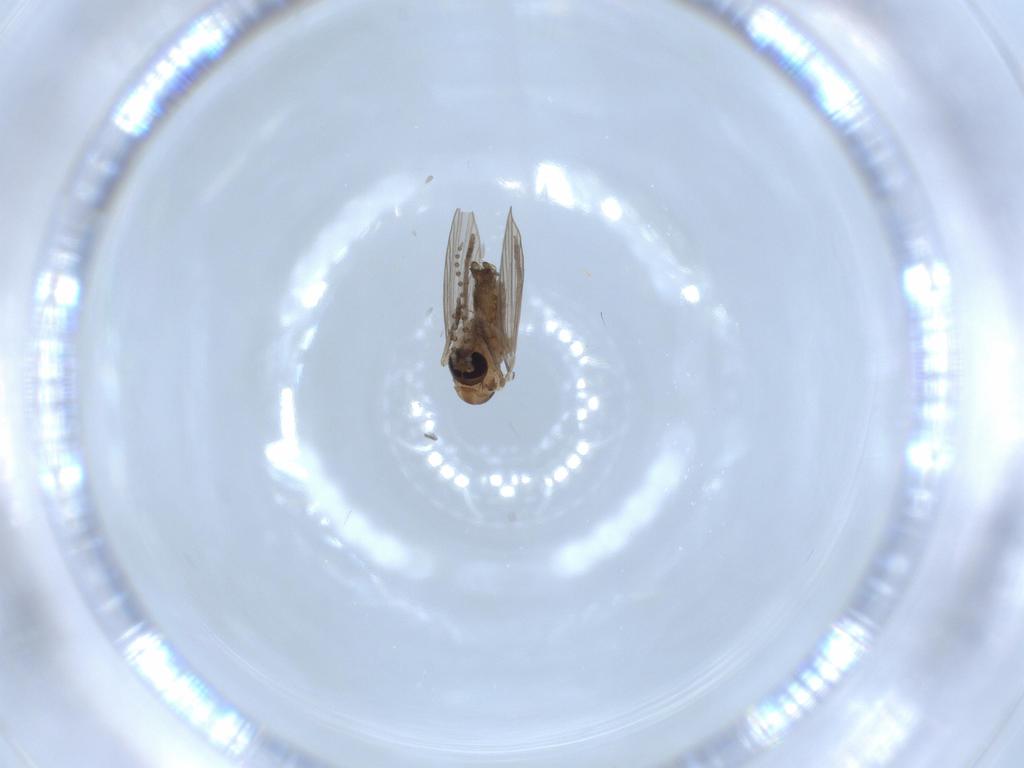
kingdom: Animalia
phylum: Arthropoda
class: Insecta
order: Diptera
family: Psychodidae
